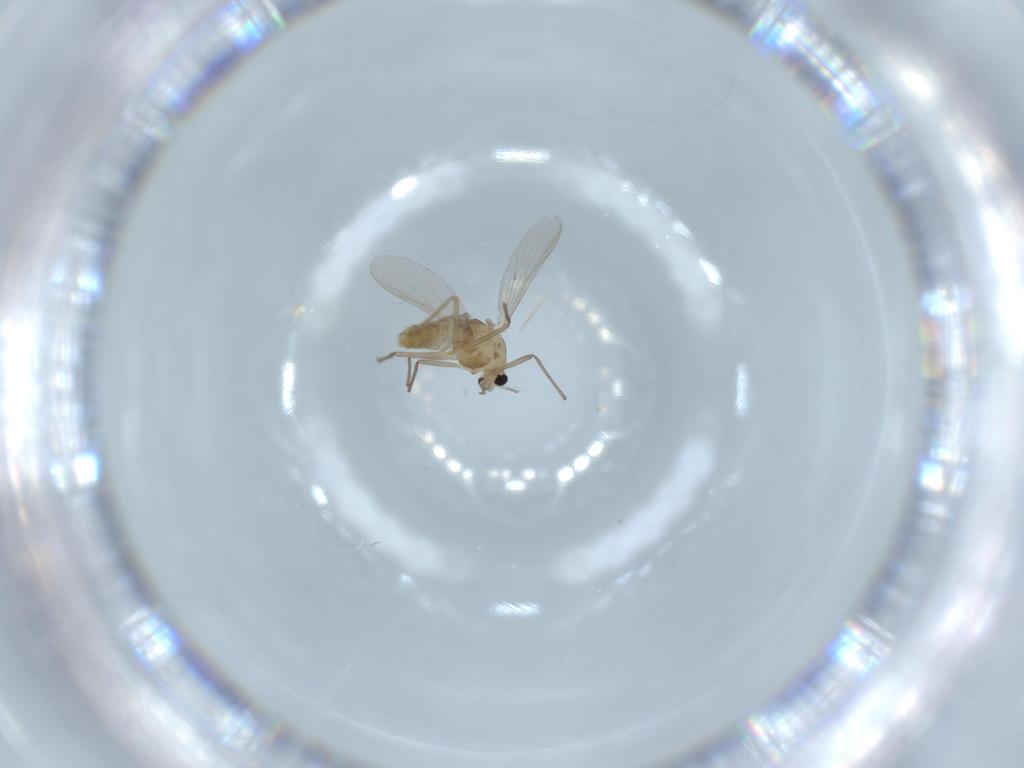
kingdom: Animalia
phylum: Arthropoda
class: Insecta
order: Diptera
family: Chironomidae
